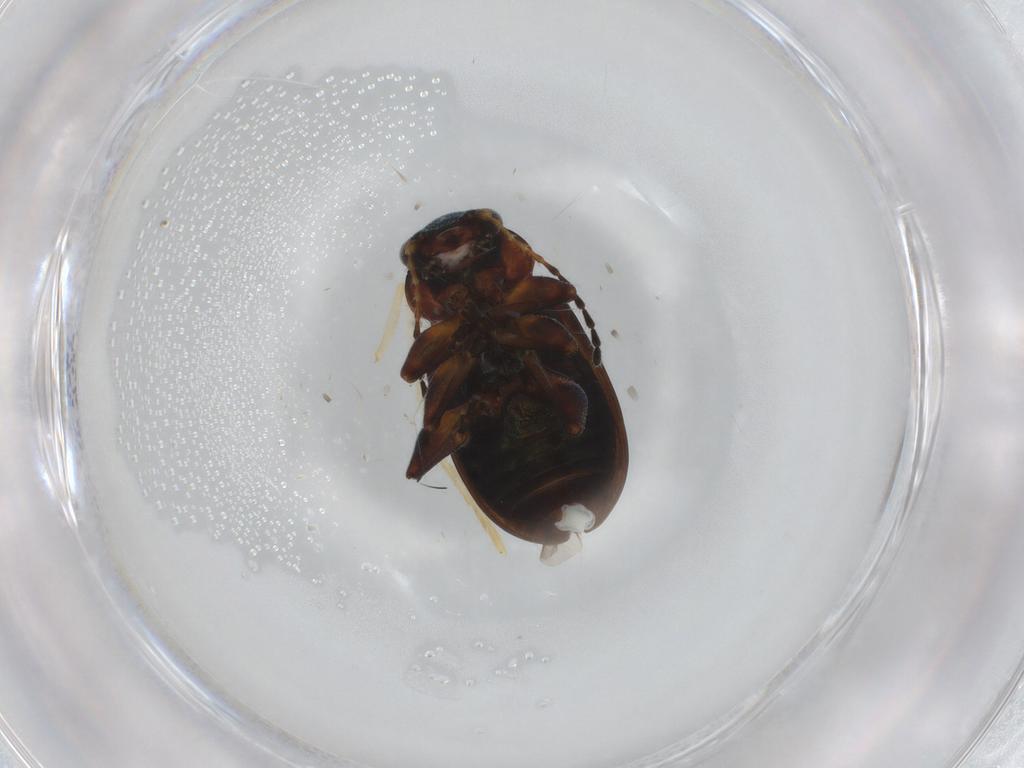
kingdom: Animalia
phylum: Arthropoda
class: Insecta
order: Coleoptera
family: Chrysomelidae
